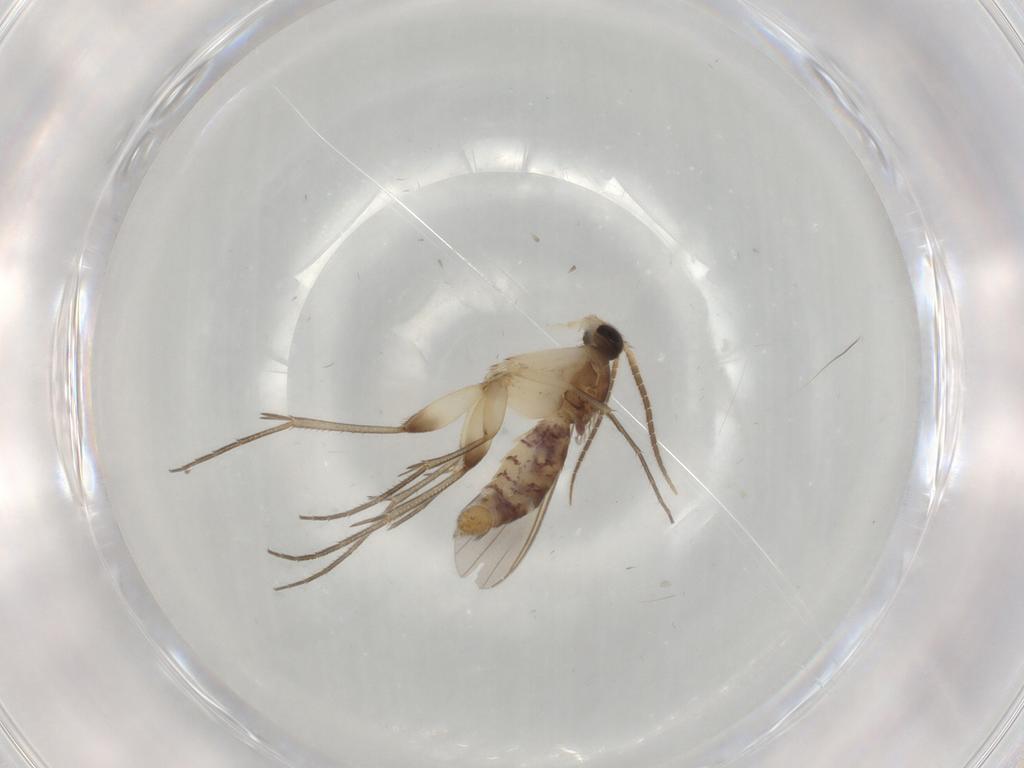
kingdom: Animalia
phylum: Arthropoda
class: Insecta
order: Diptera
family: Mycetophilidae
